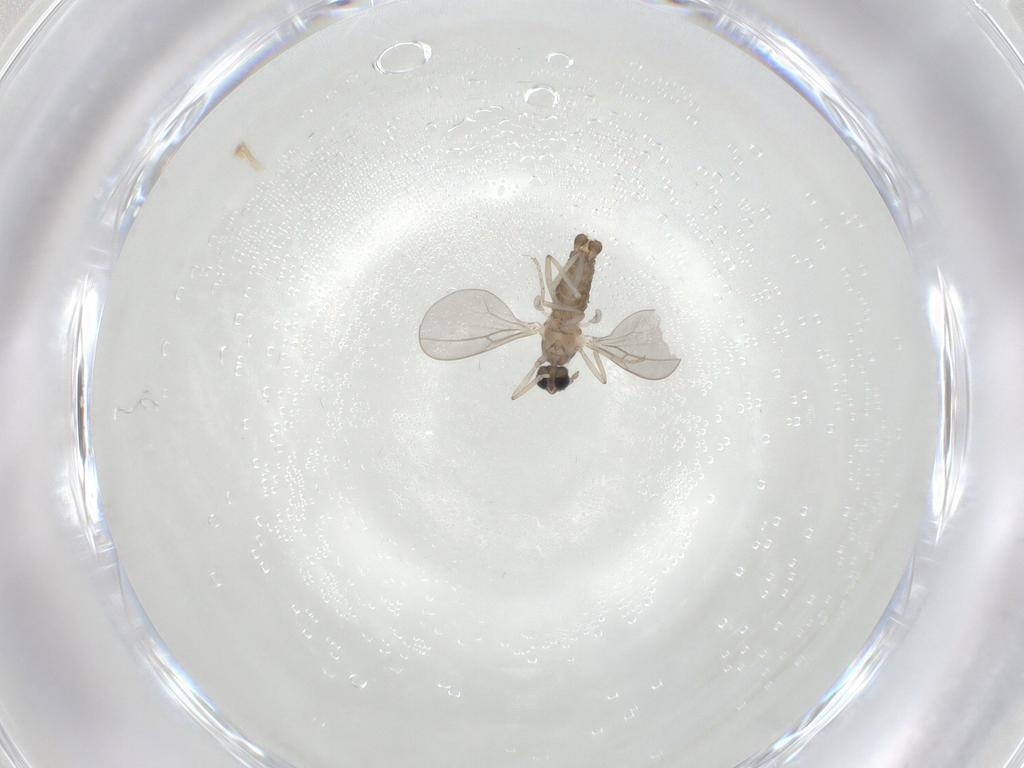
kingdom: Animalia
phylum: Arthropoda
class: Insecta
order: Diptera
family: Cecidomyiidae
